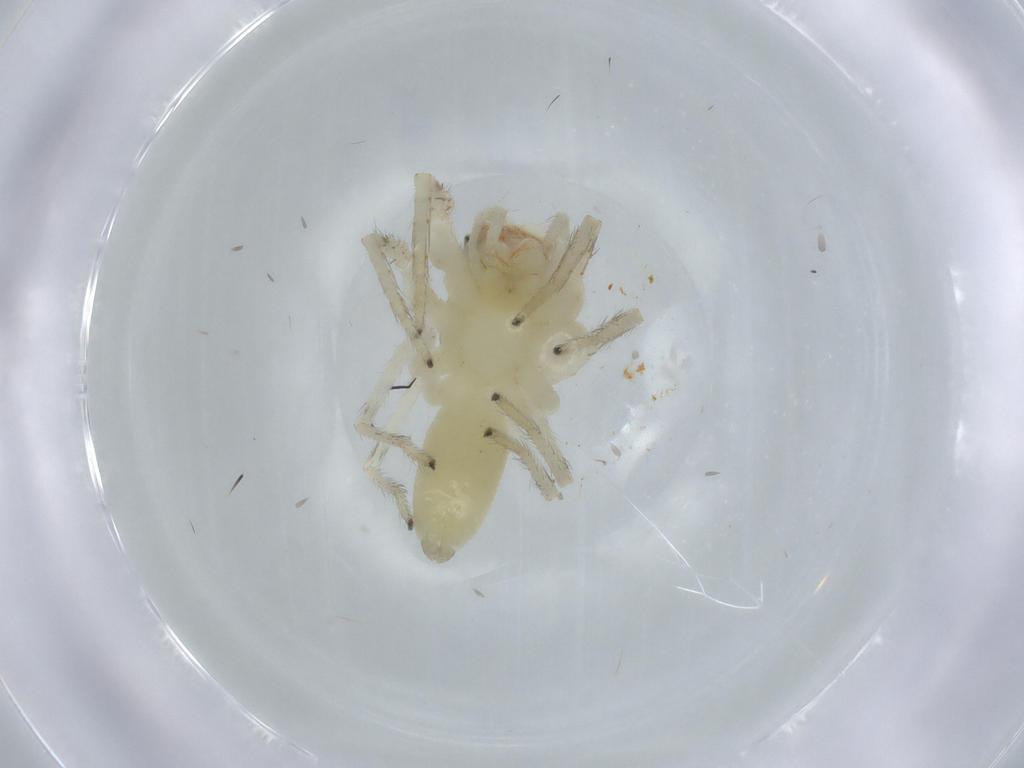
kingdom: Animalia
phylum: Arthropoda
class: Arachnida
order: Araneae
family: Salticidae
